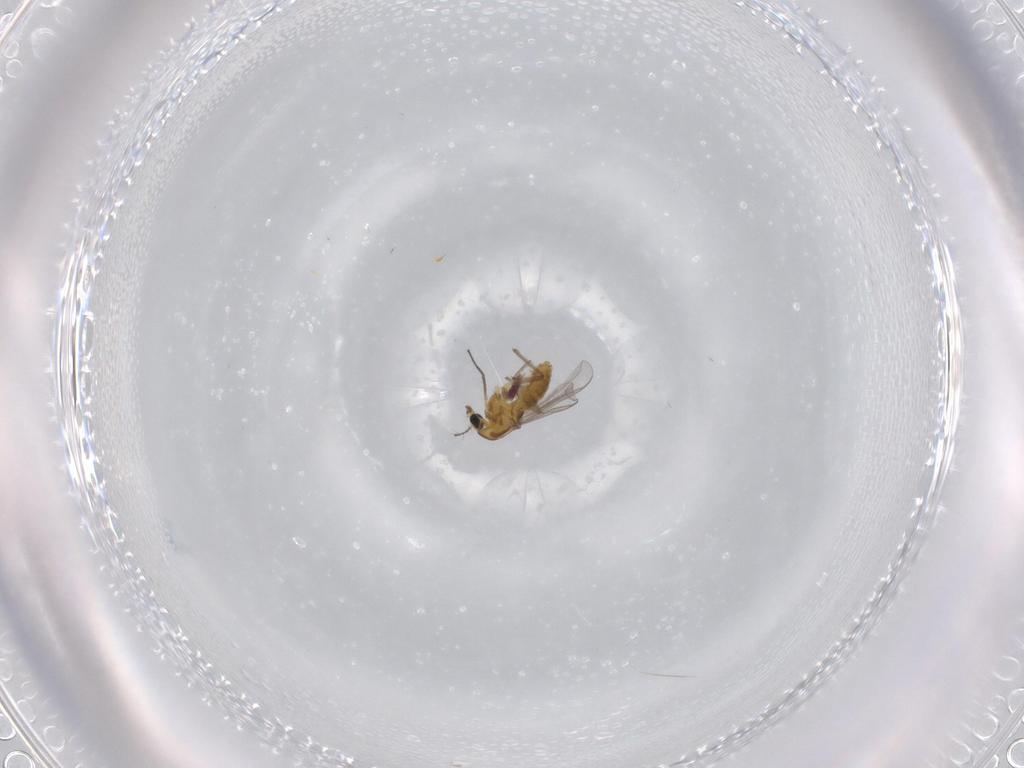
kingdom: Animalia
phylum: Arthropoda
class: Insecta
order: Diptera
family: Chironomidae
